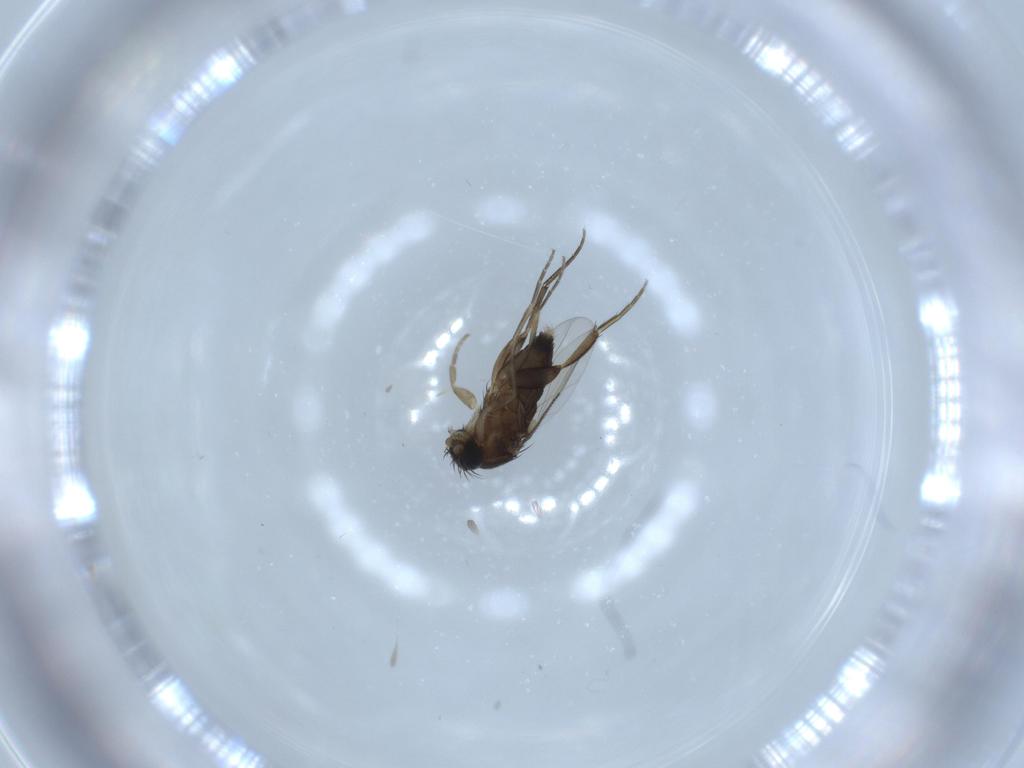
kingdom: Animalia
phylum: Arthropoda
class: Insecta
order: Diptera
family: Phoridae
